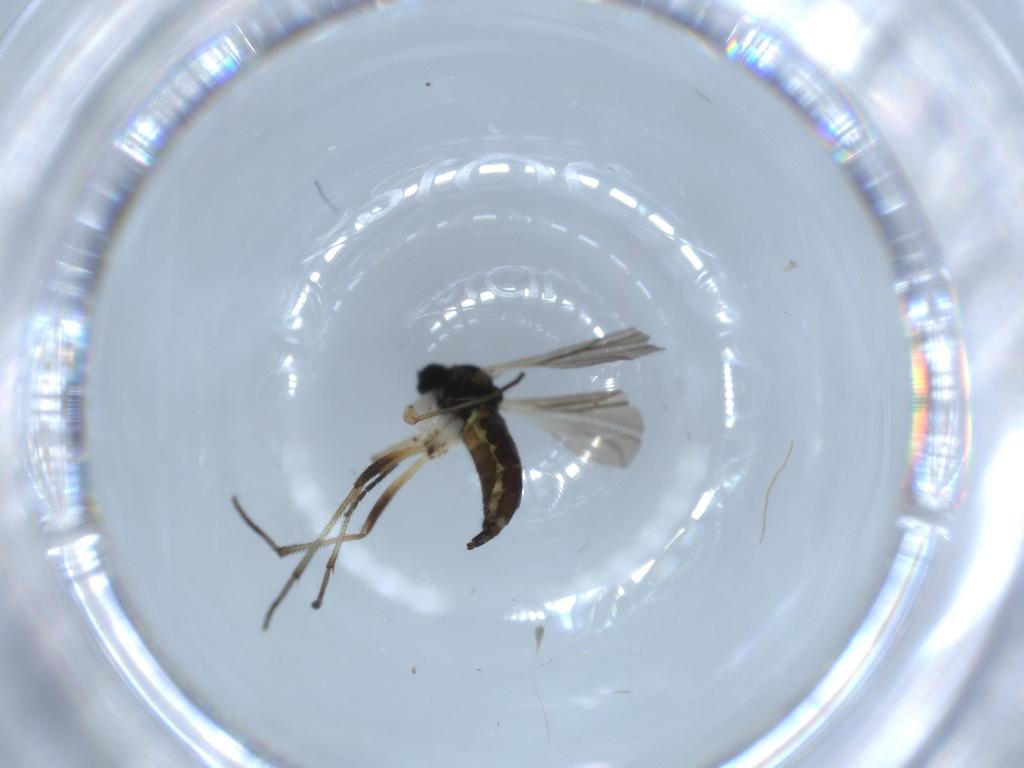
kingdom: Animalia
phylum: Arthropoda
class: Insecta
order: Diptera
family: Sciaridae
